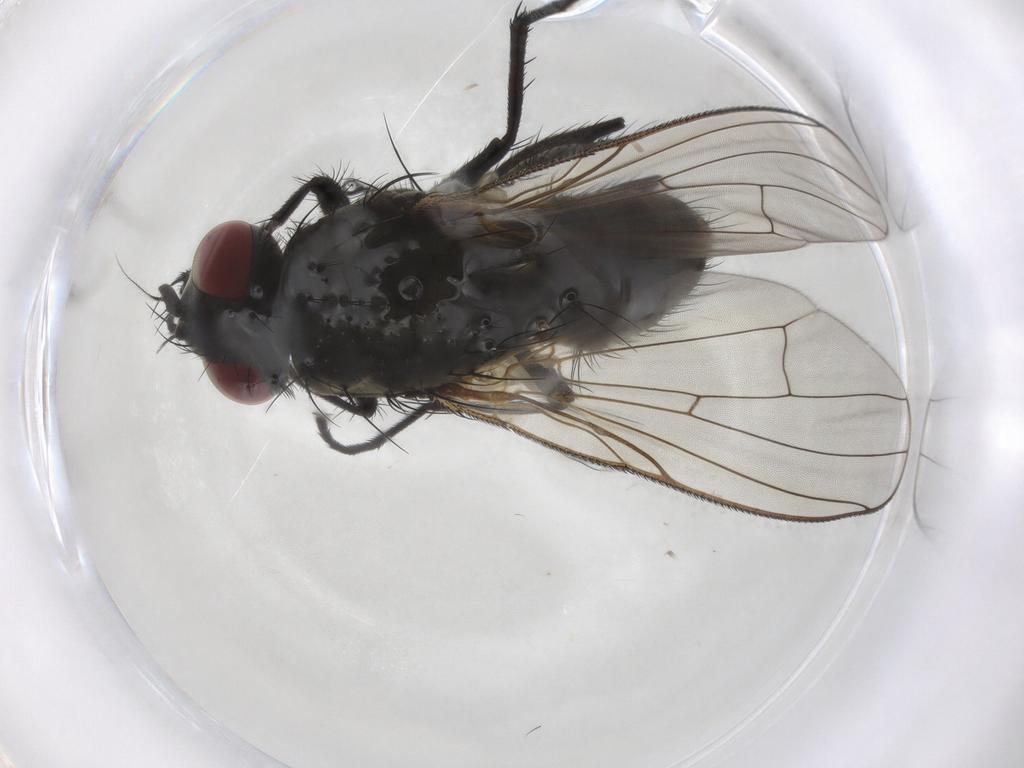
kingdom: Animalia
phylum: Arthropoda
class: Insecta
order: Diptera
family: Muscidae
